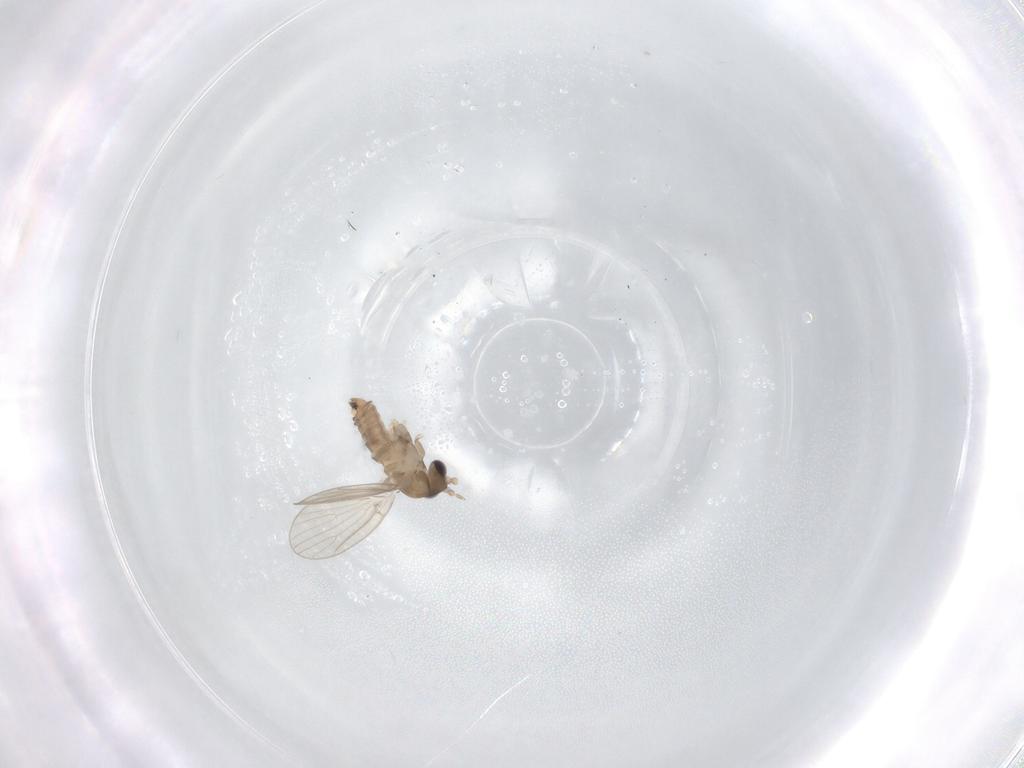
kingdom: Animalia
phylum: Arthropoda
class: Insecta
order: Diptera
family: Psychodidae
